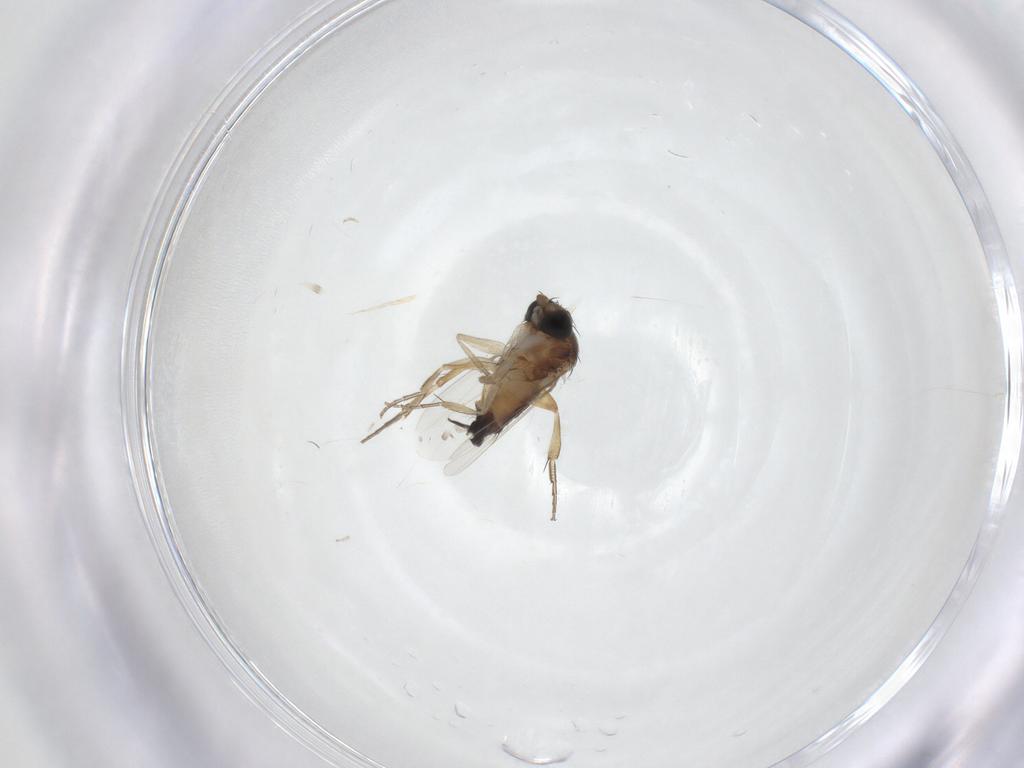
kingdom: Animalia
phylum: Arthropoda
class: Insecta
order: Diptera
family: Phoridae
